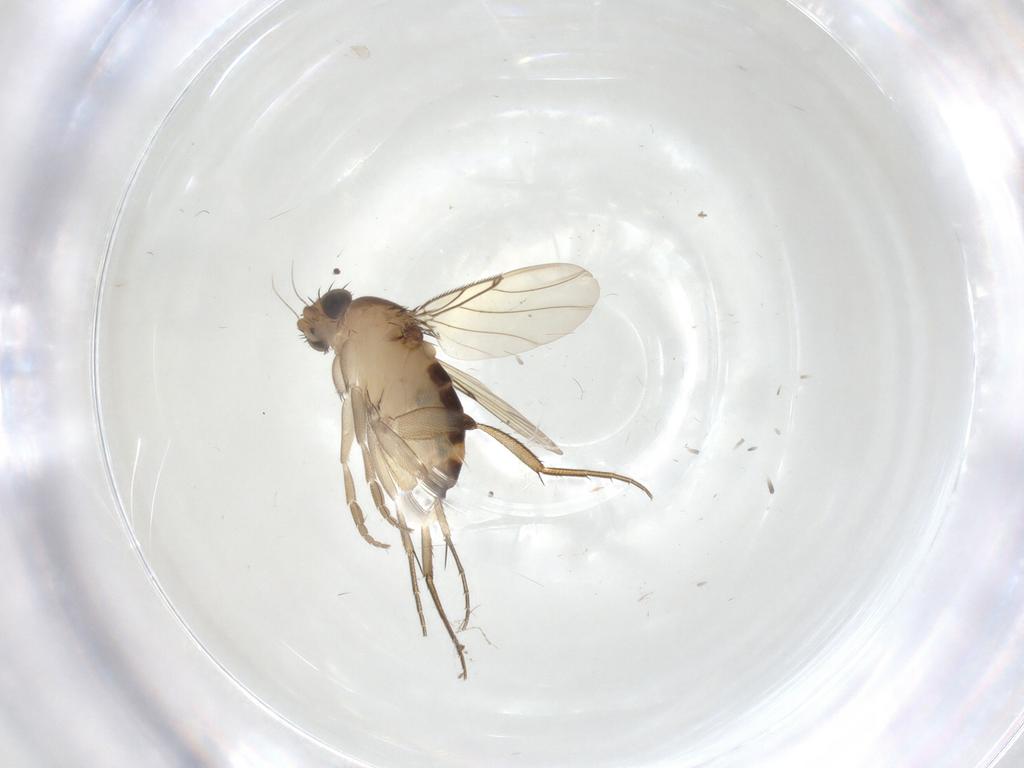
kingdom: Animalia
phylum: Arthropoda
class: Insecta
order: Diptera
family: Phoridae
